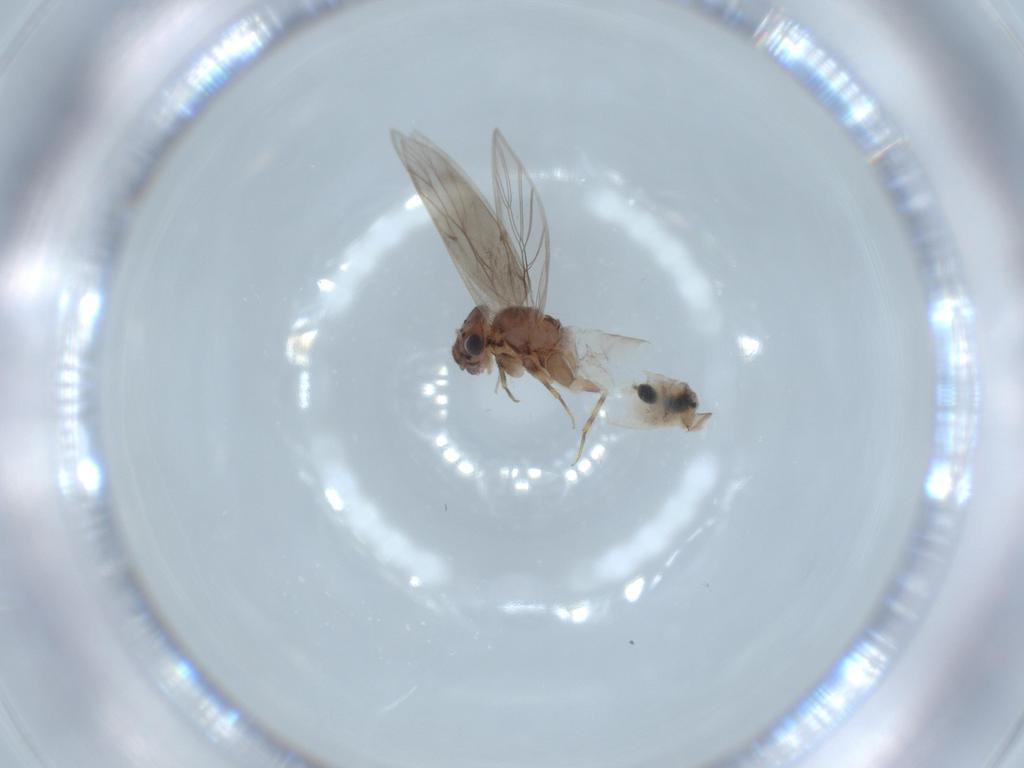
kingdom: Animalia
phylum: Arthropoda
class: Insecta
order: Psocodea
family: Lepidopsocidae
